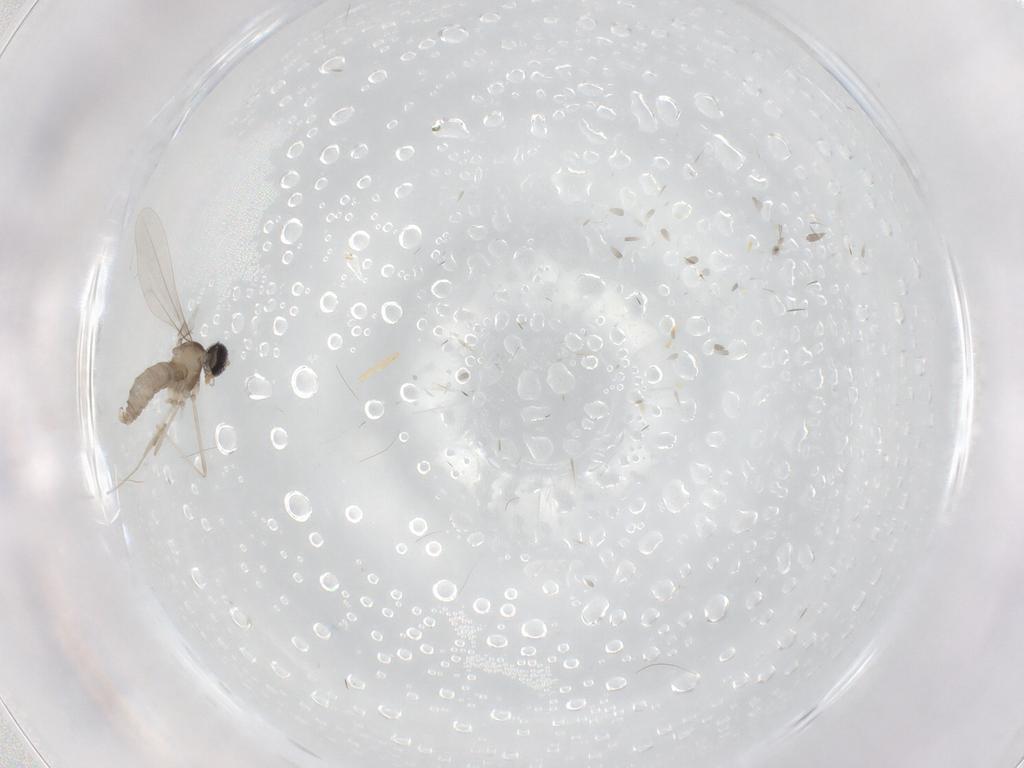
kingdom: Animalia
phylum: Arthropoda
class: Insecta
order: Diptera
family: Cecidomyiidae
